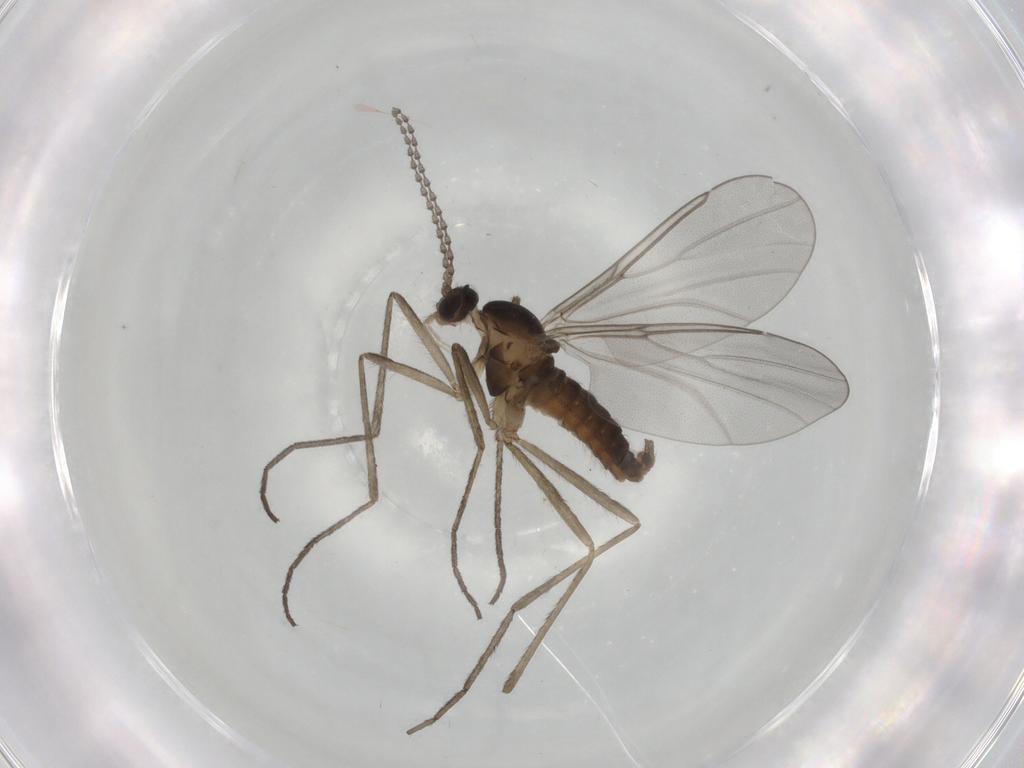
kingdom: Animalia
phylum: Arthropoda
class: Insecta
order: Diptera
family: Cecidomyiidae
